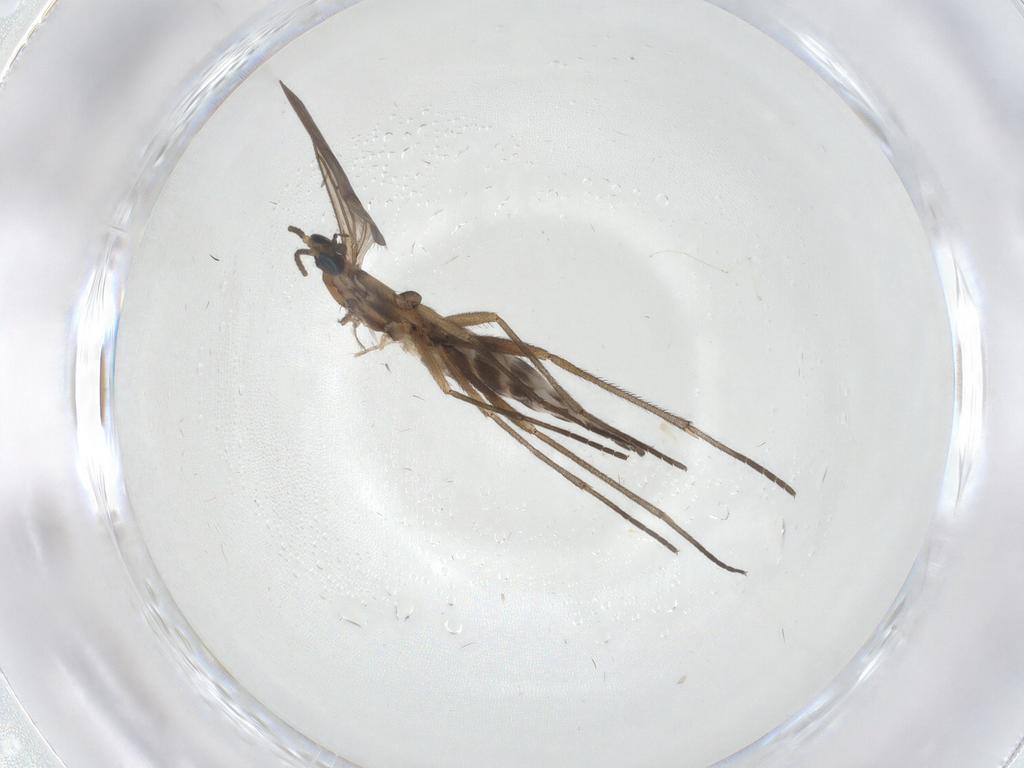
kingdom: Animalia
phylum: Arthropoda
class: Insecta
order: Diptera
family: Sciaridae
